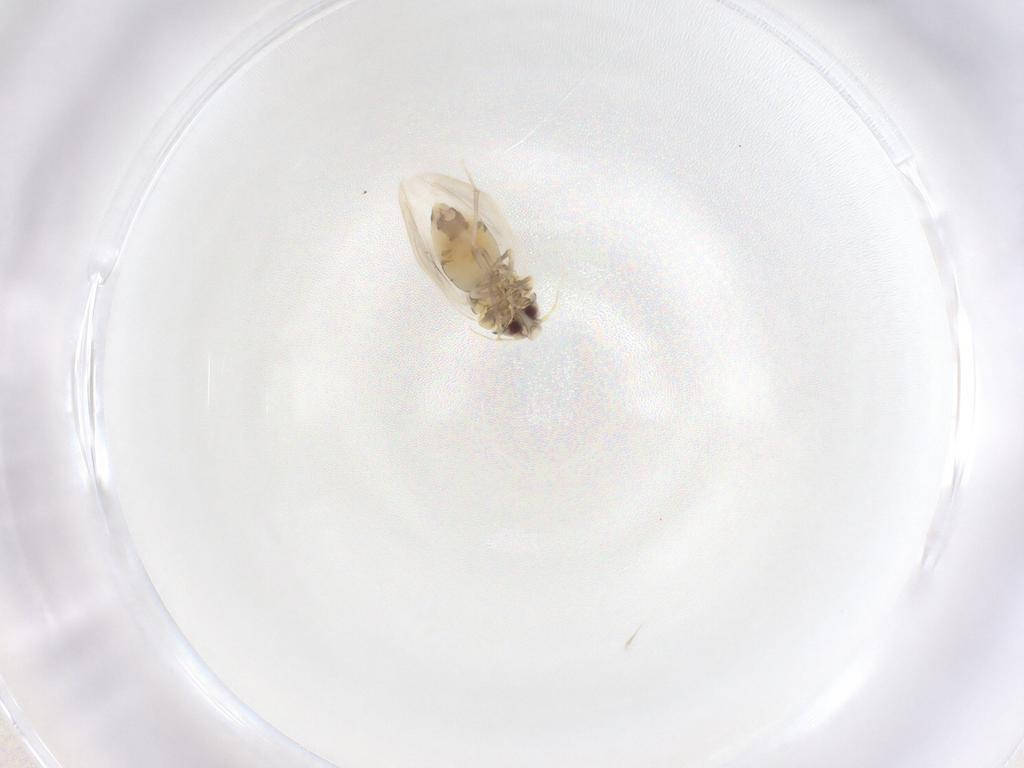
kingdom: Animalia
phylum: Arthropoda
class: Insecta
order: Hemiptera
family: Aleyrodidae
